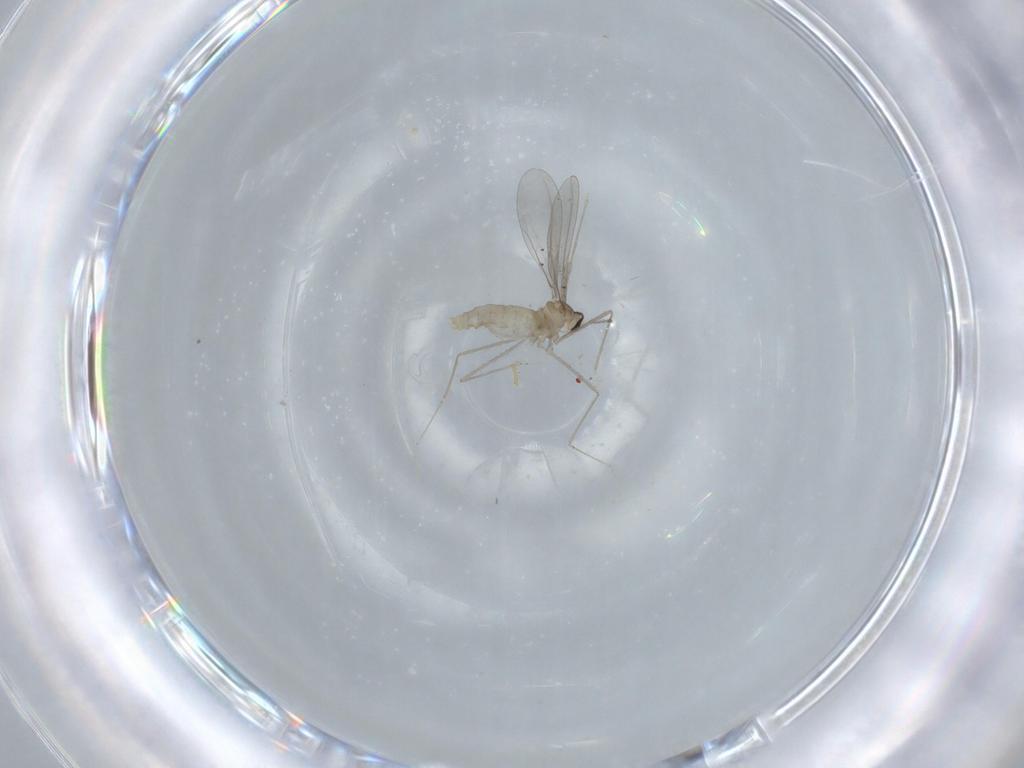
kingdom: Animalia
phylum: Arthropoda
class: Insecta
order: Diptera
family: Cecidomyiidae
